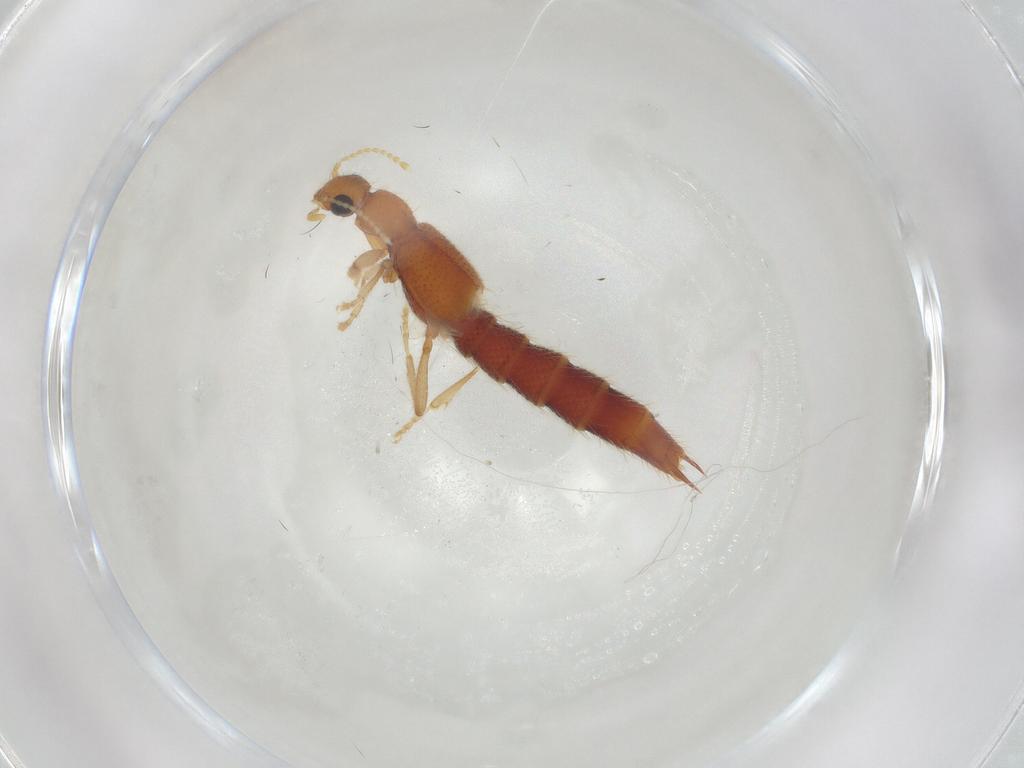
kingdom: Animalia
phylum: Arthropoda
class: Insecta
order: Coleoptera
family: Staphylinidae
